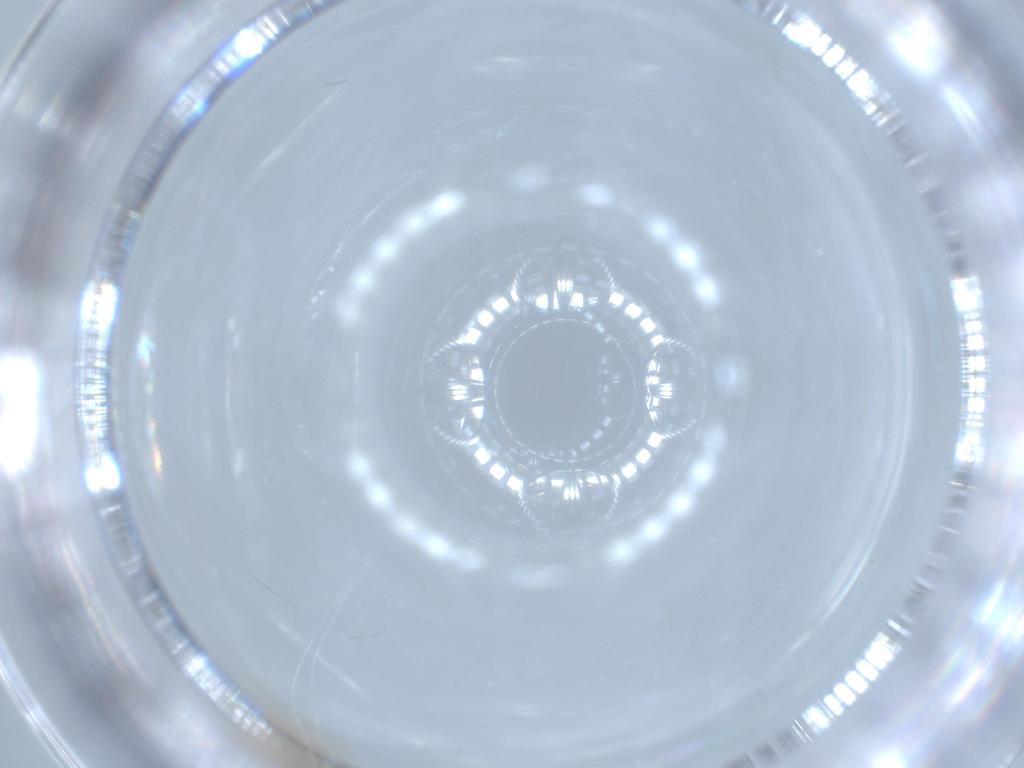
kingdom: Animalia
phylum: Arthropoda
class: Insecta
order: Diptera
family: Cecidomyiidae
